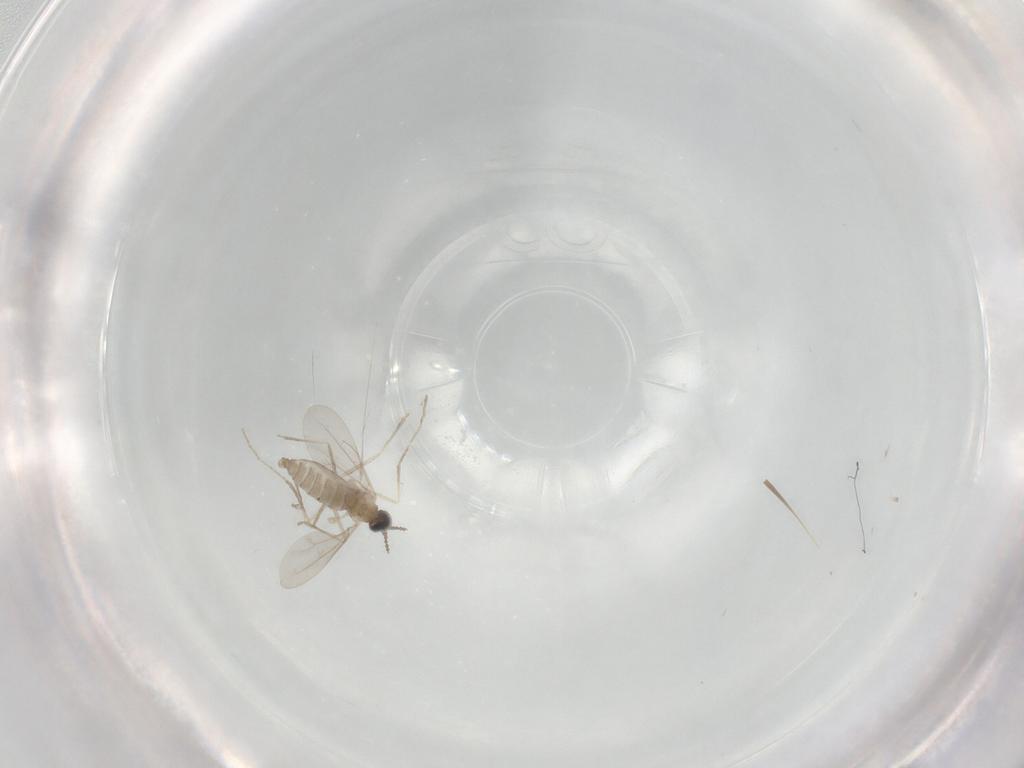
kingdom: Animalia
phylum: Arthropoda
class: Insecta
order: Diptera
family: Cecidomyiidae
